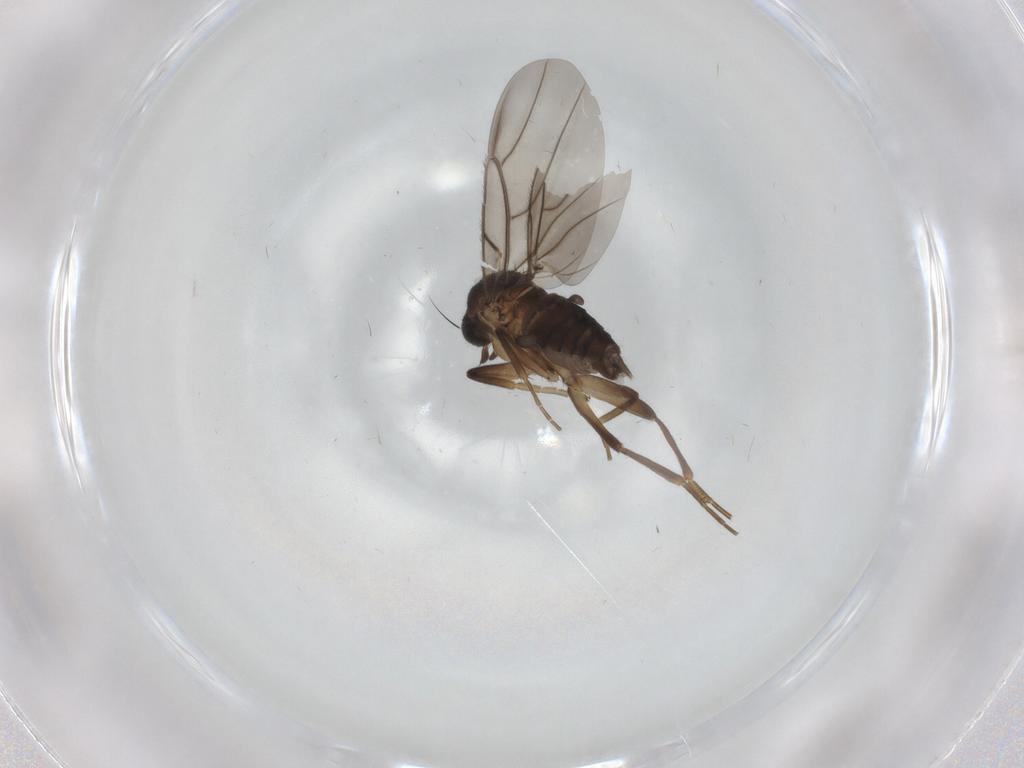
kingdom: Animalia
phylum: Arthropoda
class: Insecta
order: Diptera
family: Phoridae
